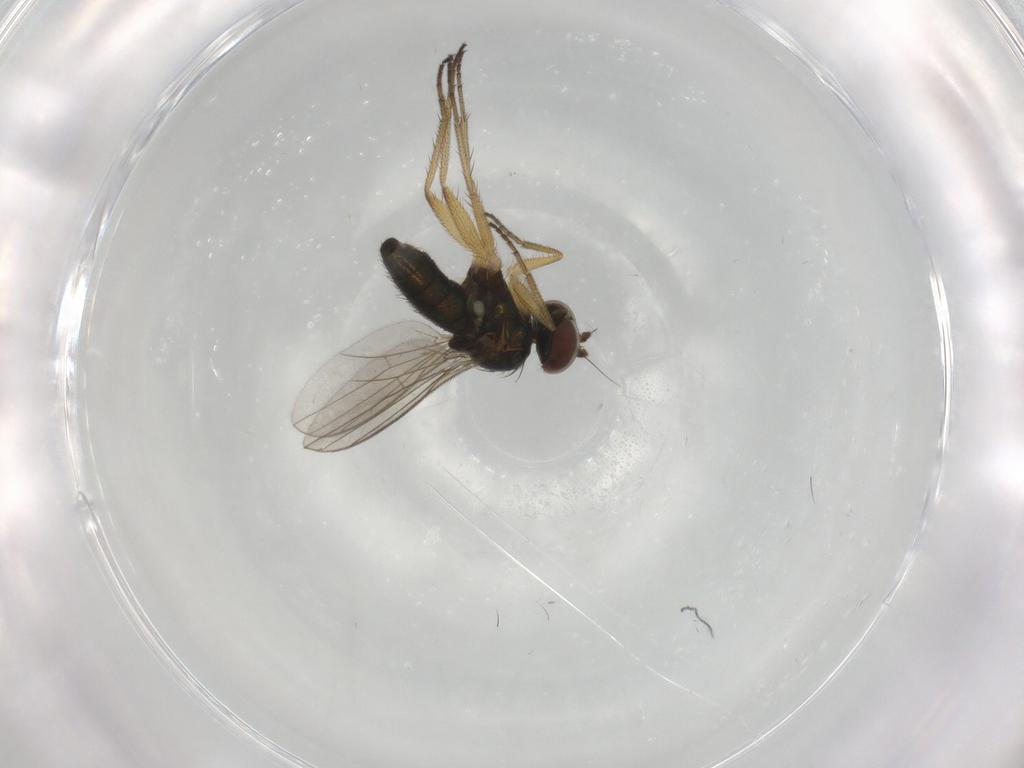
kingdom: Animalia
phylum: Arthropoda
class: Insecta
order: Diptera
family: Dolichopodidae
